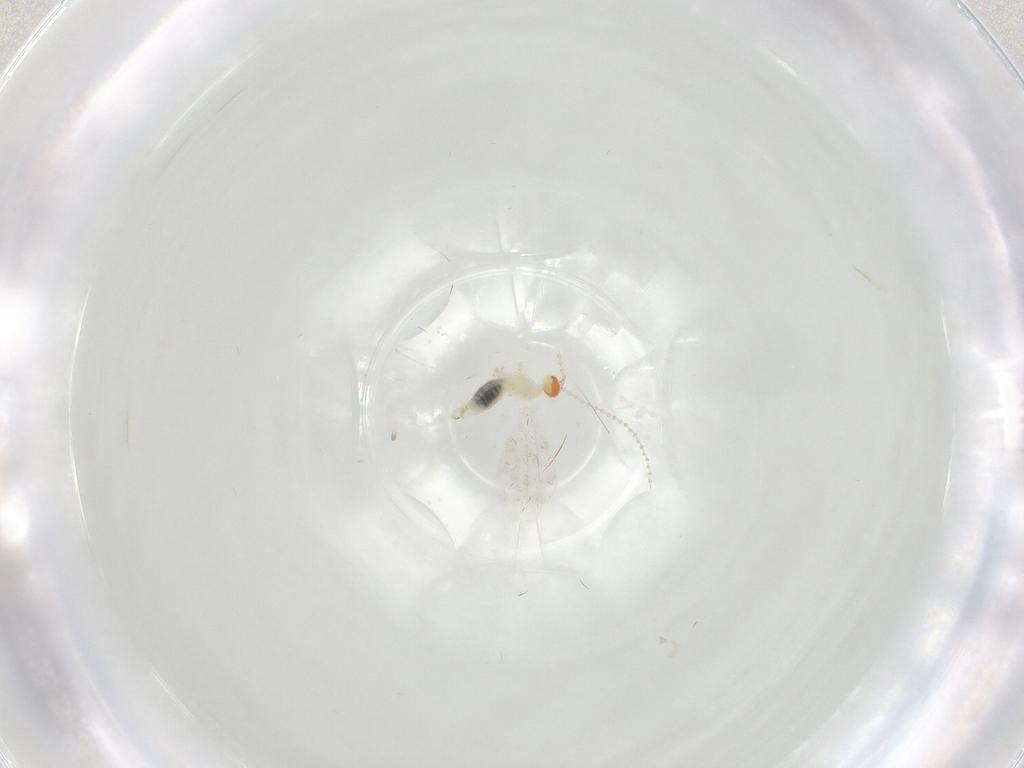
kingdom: Animalia
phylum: Arthropoda
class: Insecta
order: Diptera
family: Cecidomyiidae
